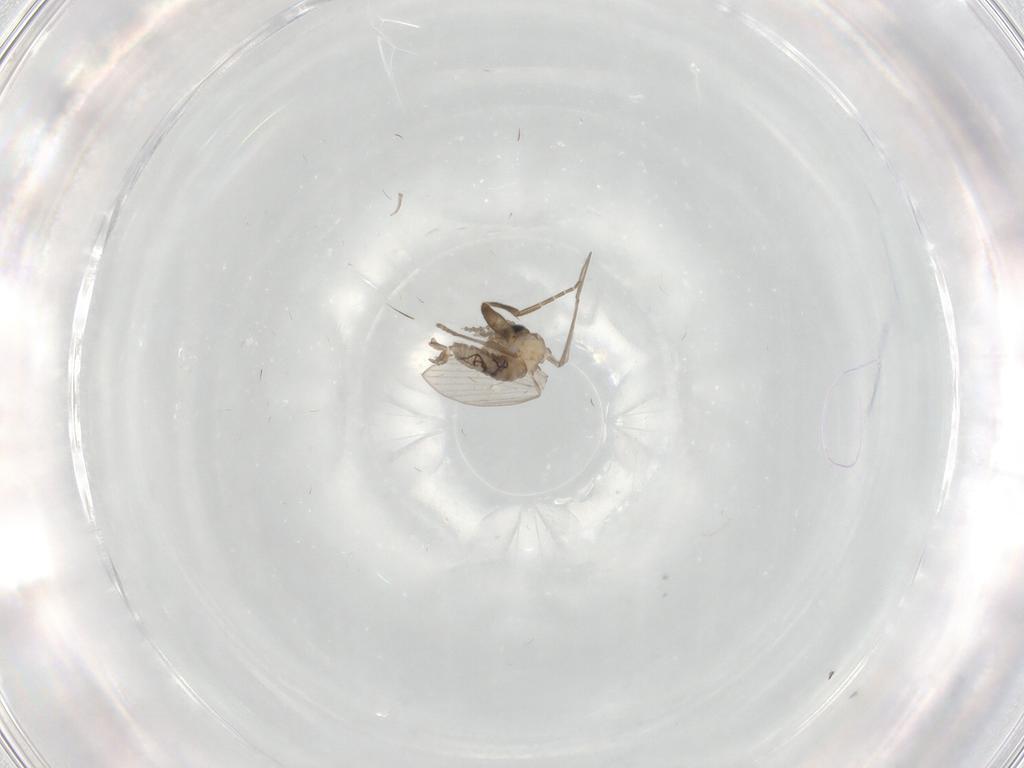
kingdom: Animalia
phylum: Arthropoda
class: Insecta
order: Diptera
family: Psychodidae
